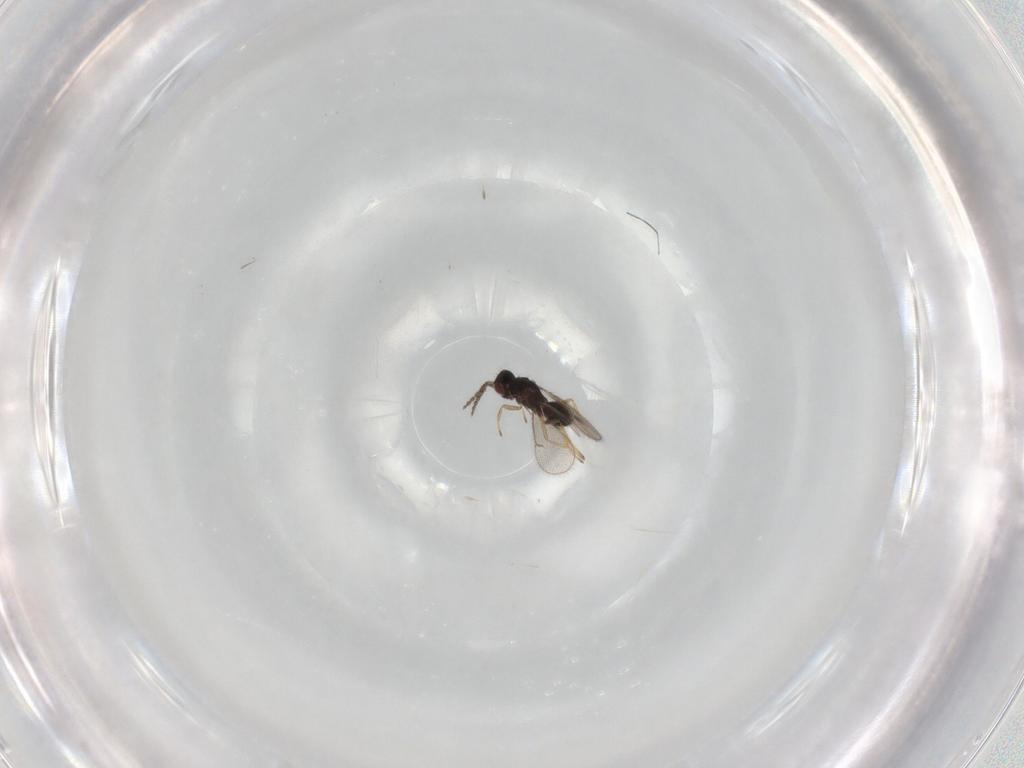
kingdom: Animalia
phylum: Arthropoda
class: Insecta
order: Hymenoptera
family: Eulophidae
